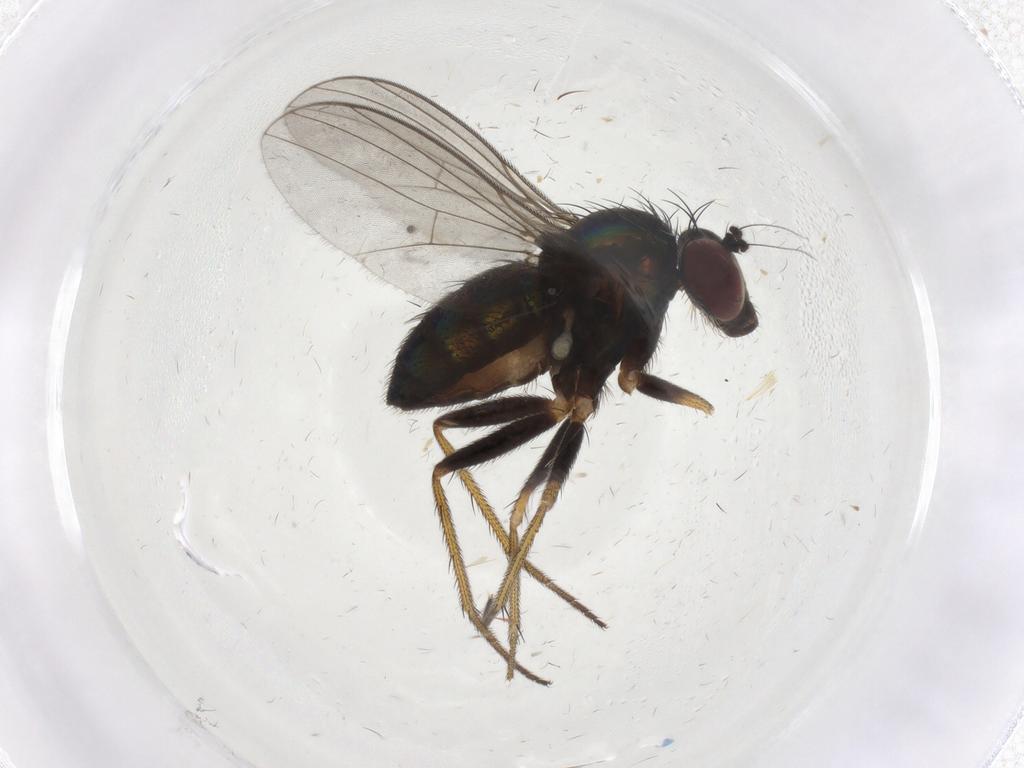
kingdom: Animalia
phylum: Arthropoda
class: Insecta
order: Diptera
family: Dolichopodidae
